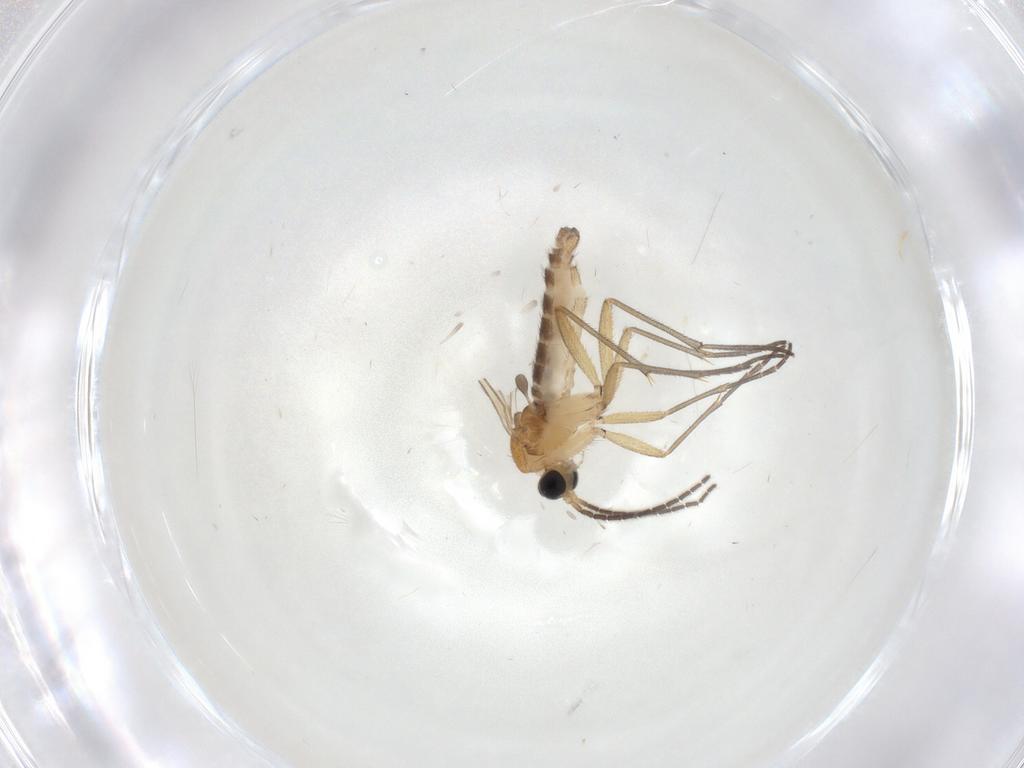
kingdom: Animalia
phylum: Arthropoda
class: Insecta
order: Diptera
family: Sciaridae
